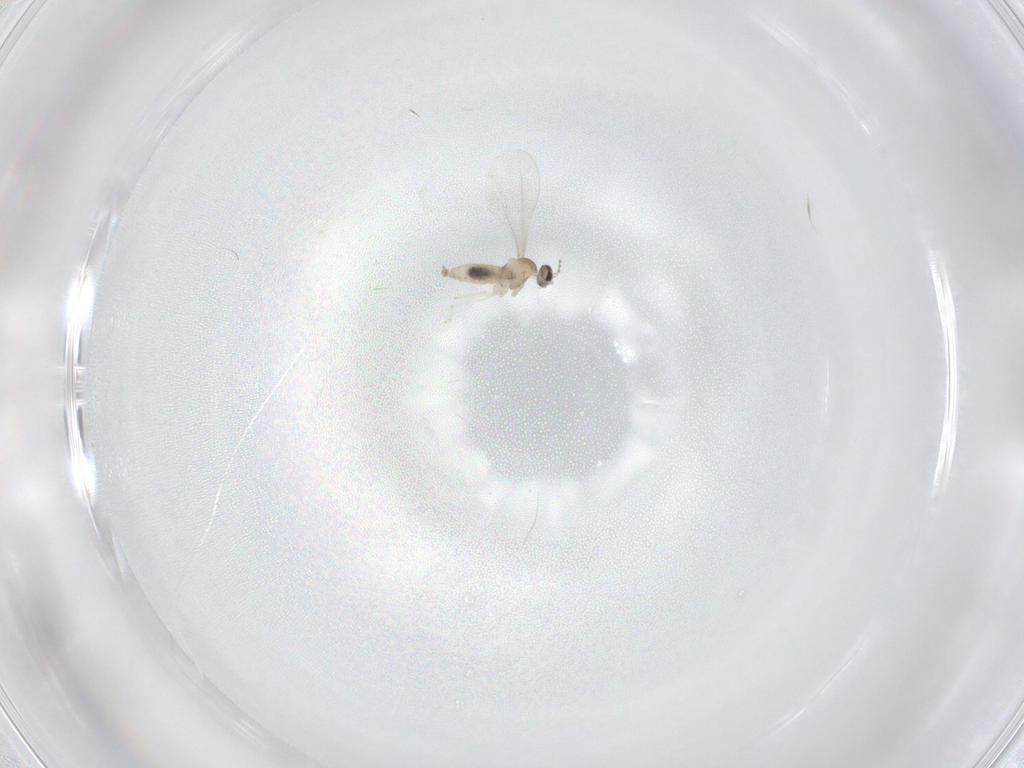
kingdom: Animalia
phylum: Arthropoda
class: Insecta
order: Diptera
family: Cecidomyiidae
